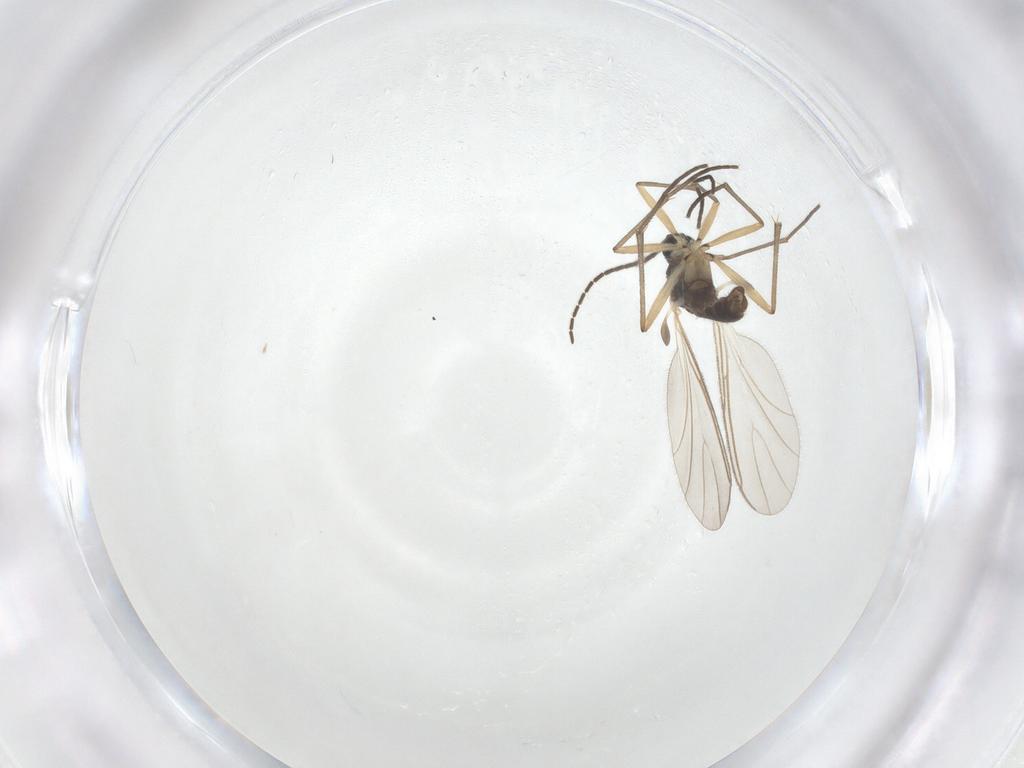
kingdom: Animalia
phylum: Arthropoda
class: Insecta
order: Diptera
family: Sciaridae
